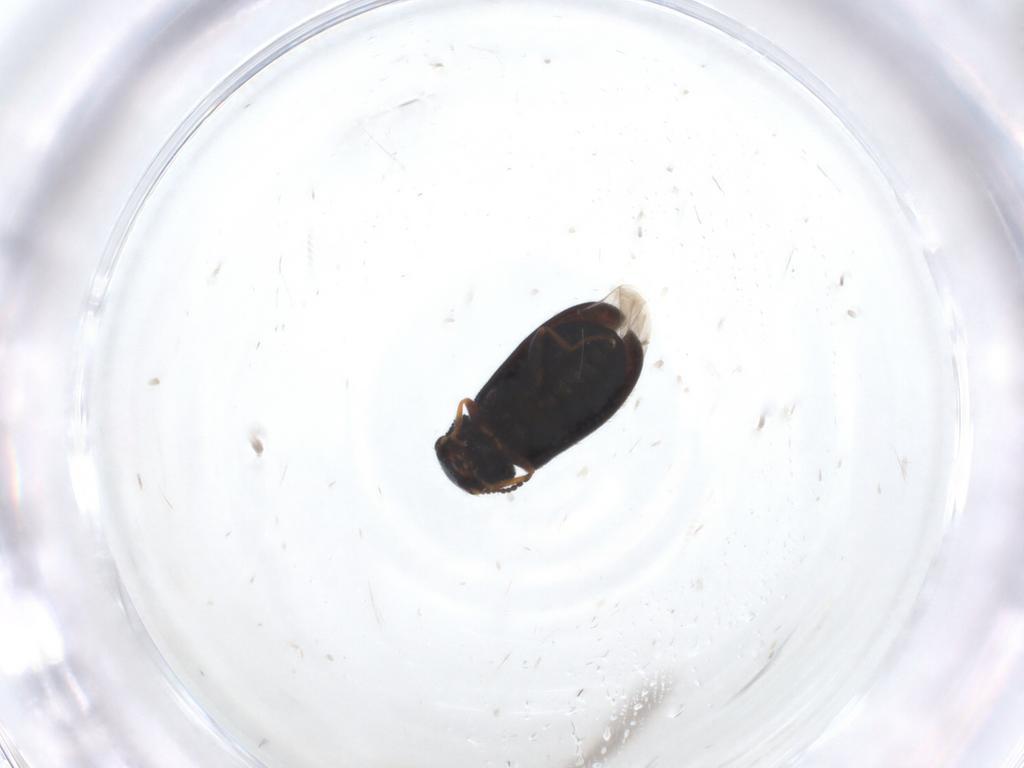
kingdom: Animalia
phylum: Arthropoda
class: Insecta
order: Coleoptera
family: Melyridae
